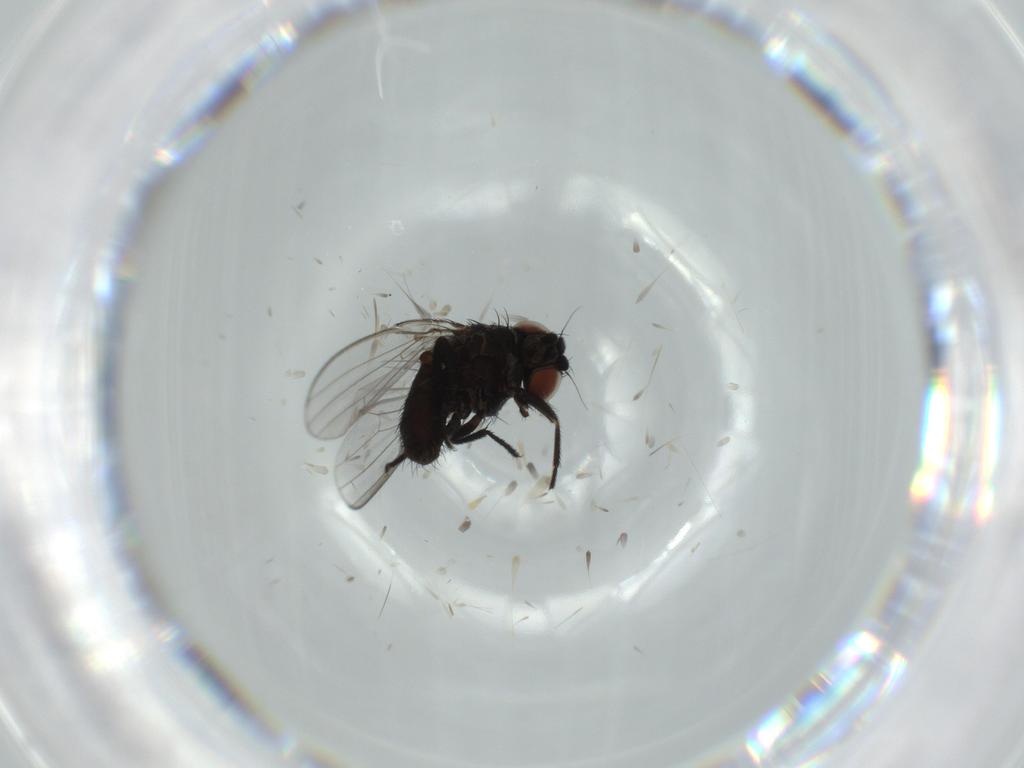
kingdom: Animalia
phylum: Arthropoda
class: Insecta
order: Diptera
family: Milichiidae
